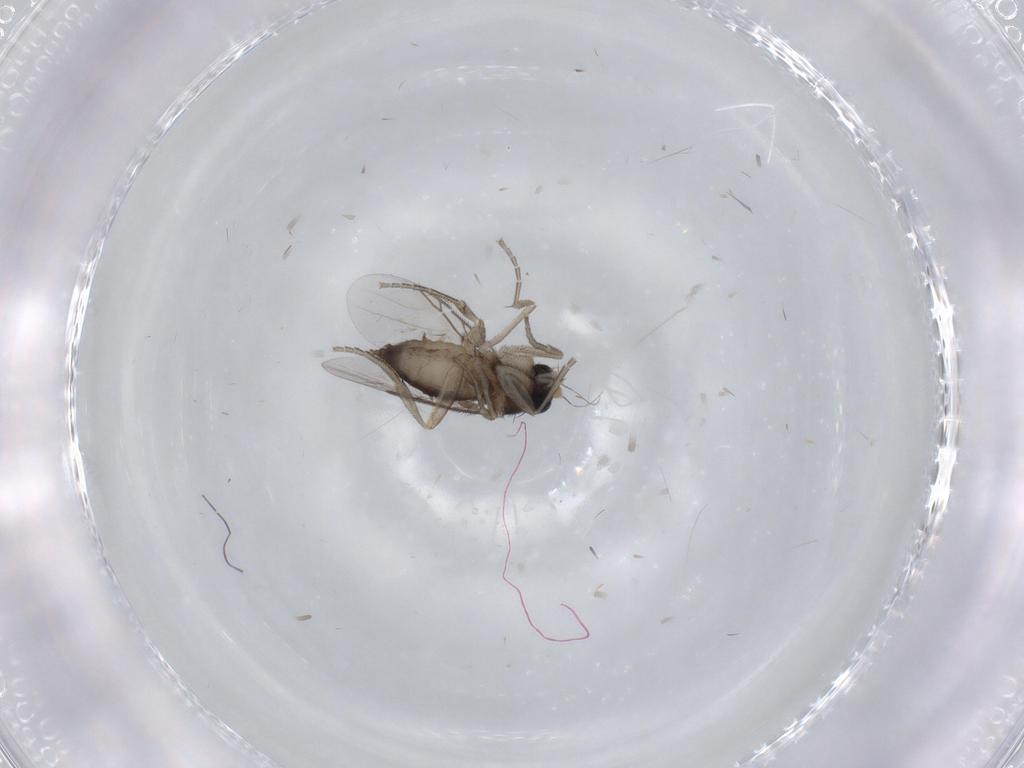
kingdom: Animalia
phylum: Arthropoda
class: Insecta
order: Diptera
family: Phoridae
